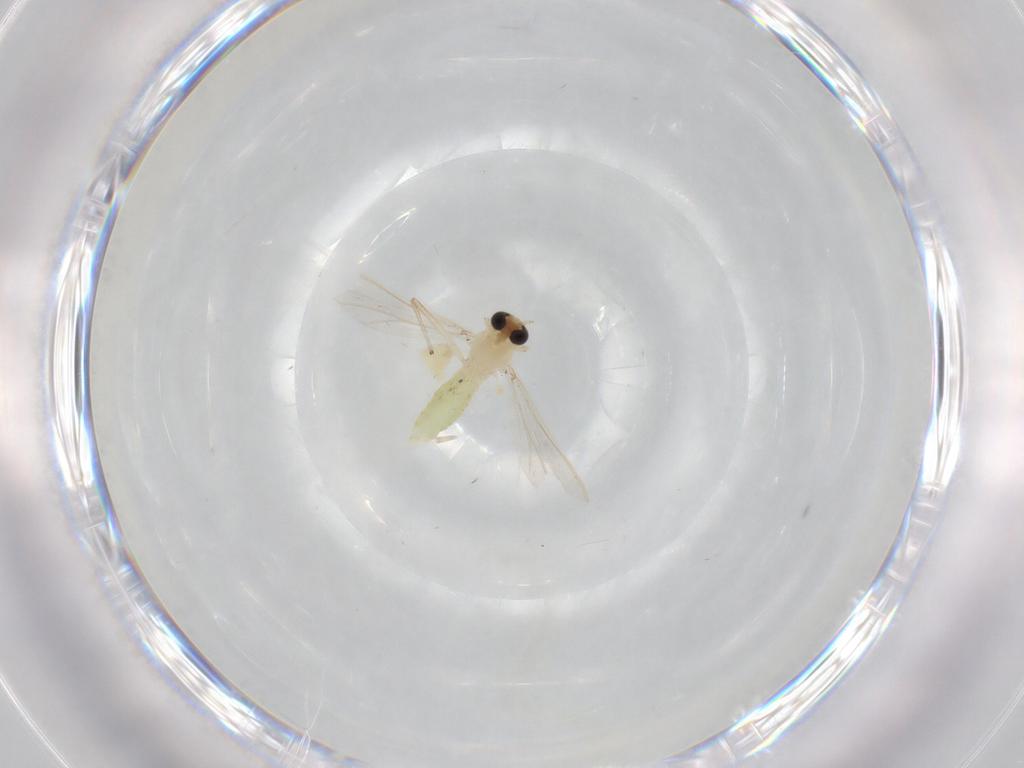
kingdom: Animalia
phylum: Arthropoda
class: Insecta
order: Diptera
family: Chironomidae
